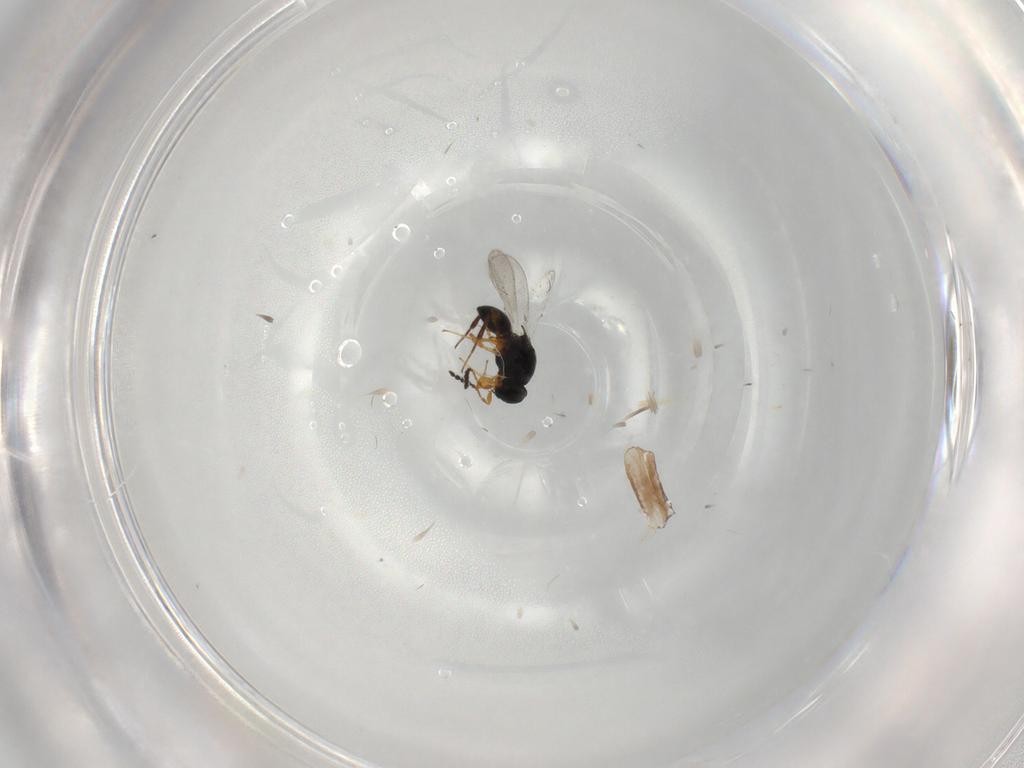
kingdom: Animalia
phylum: Arthropoda
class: Insecta
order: Hymenoptera
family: Platygastridae
